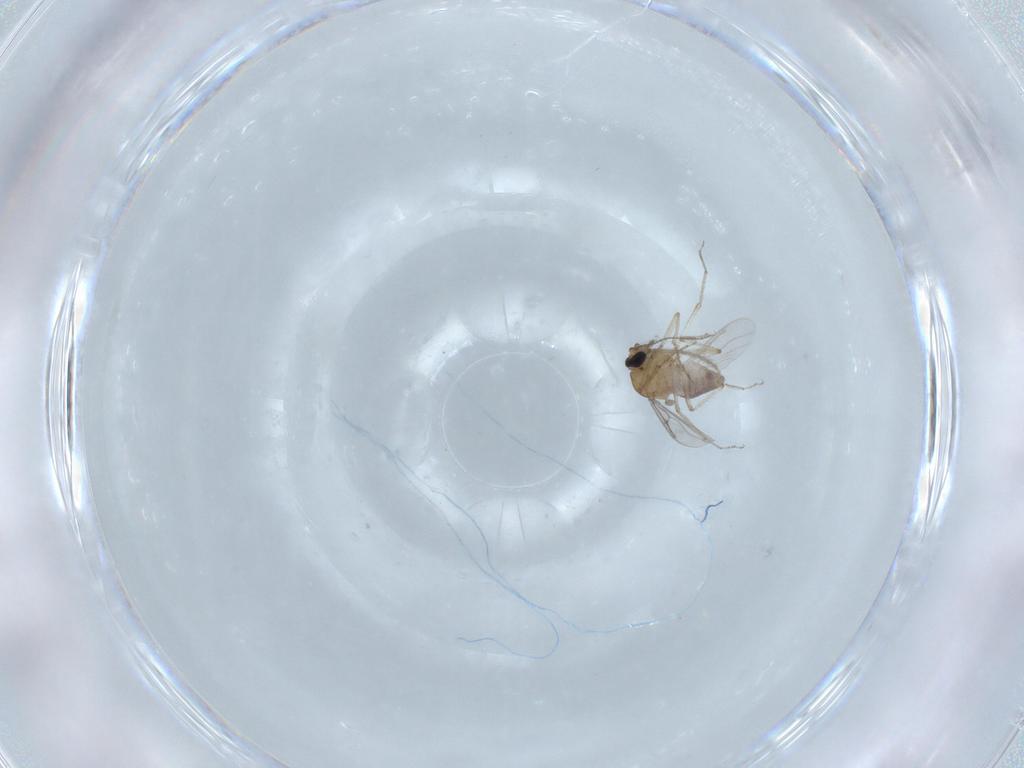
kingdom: Animalia
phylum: Arthropoda
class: Insecta
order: Diptera
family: Ceratopogonidae
